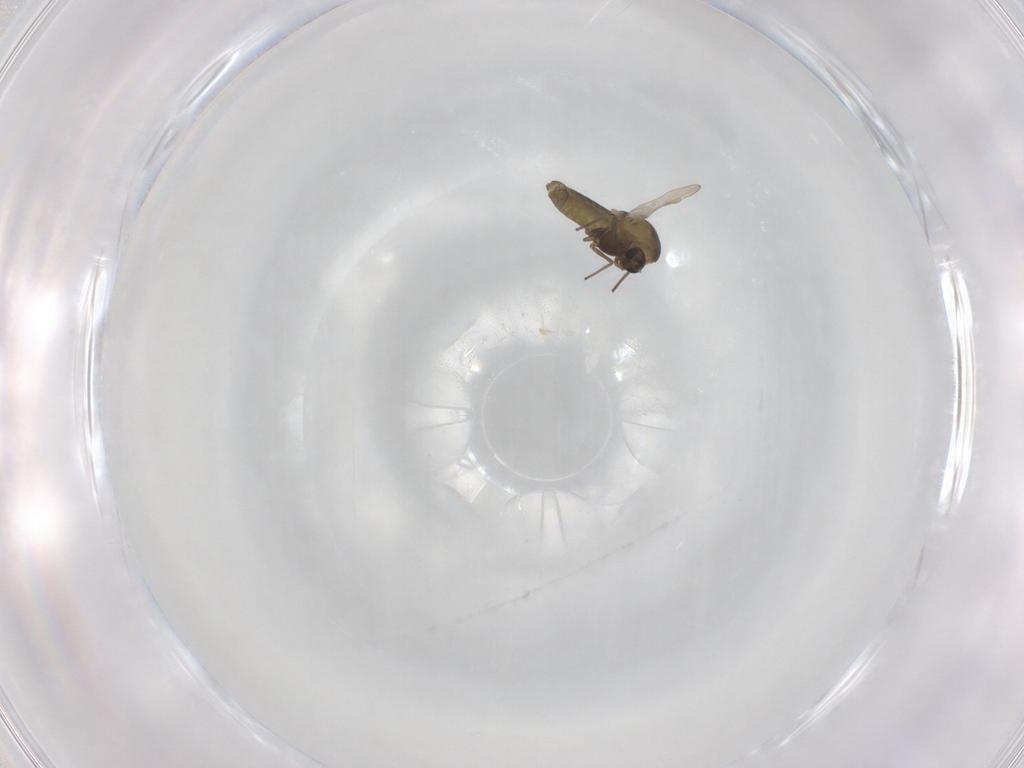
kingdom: Animalia
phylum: Arthropoda
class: Insecta
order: Diptera
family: Chironomidae
